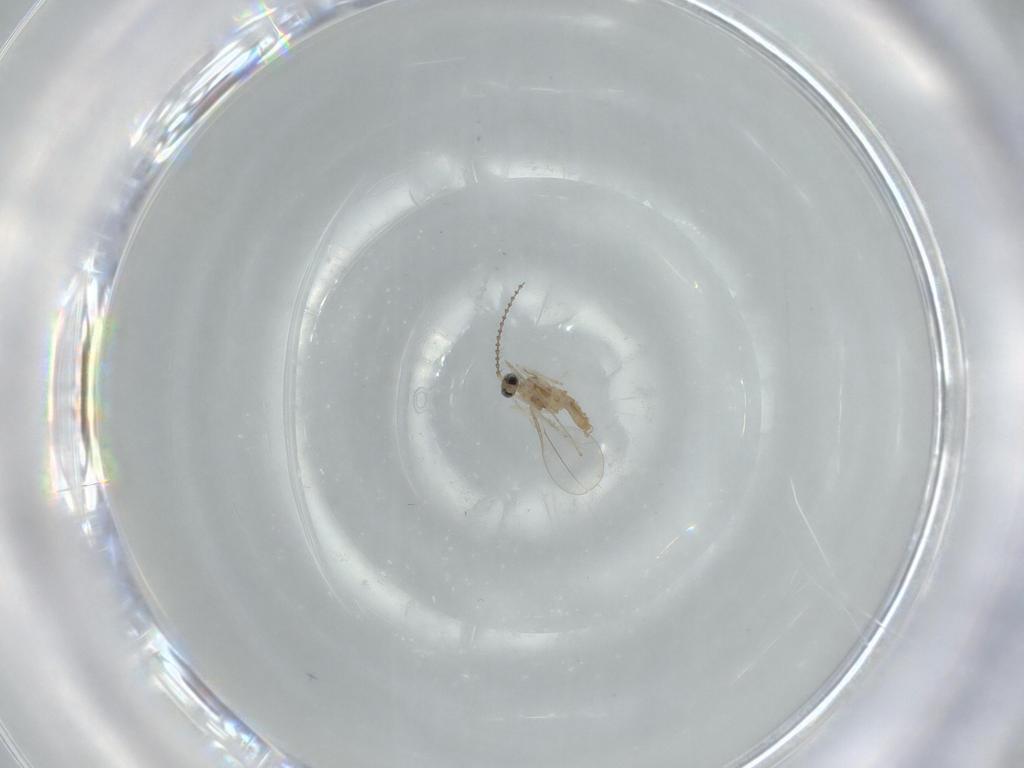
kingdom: Animalia
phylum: Arthropoda
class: Insecta
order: Diptera
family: Cecidomyiidae
